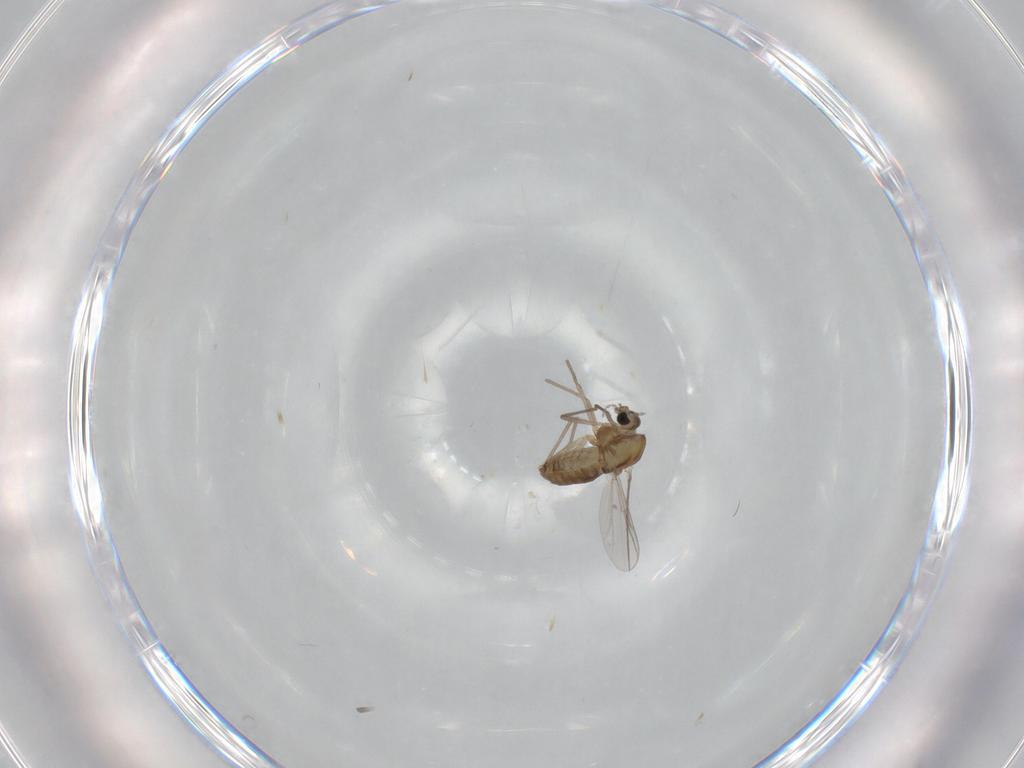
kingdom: Animalia
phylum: Arthropoda
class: Insecta
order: Diptera
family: Chironomidae
